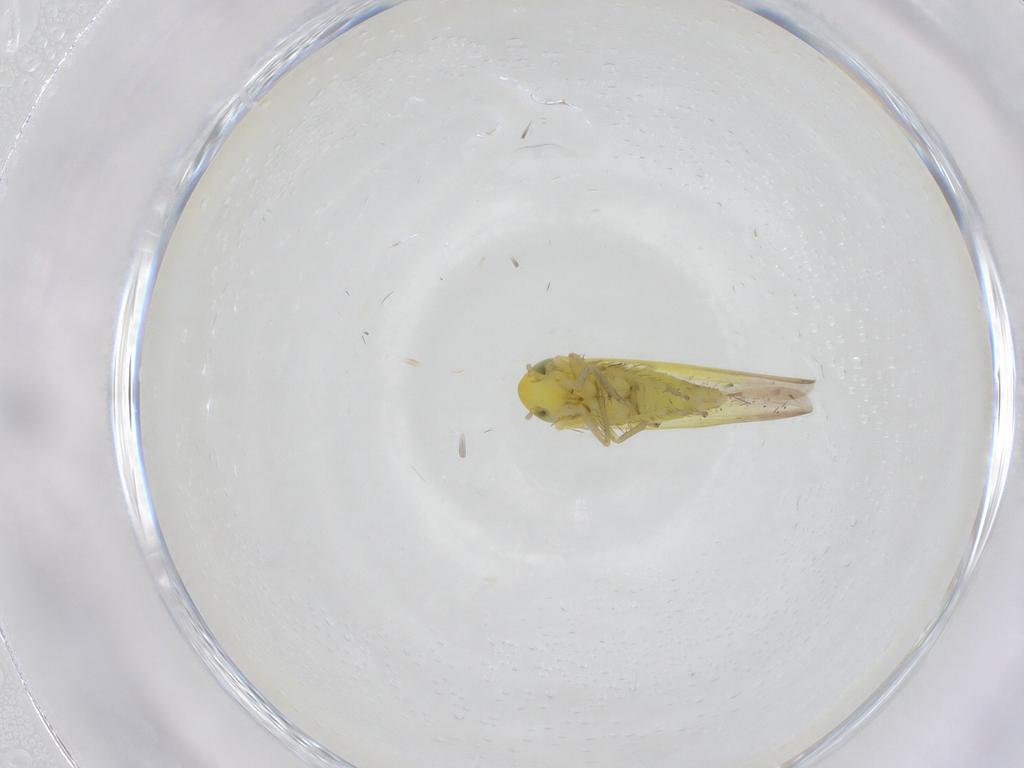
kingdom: Animalia
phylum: Arthropoda
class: Insecta
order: Hemiptera
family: Cicadellidae
